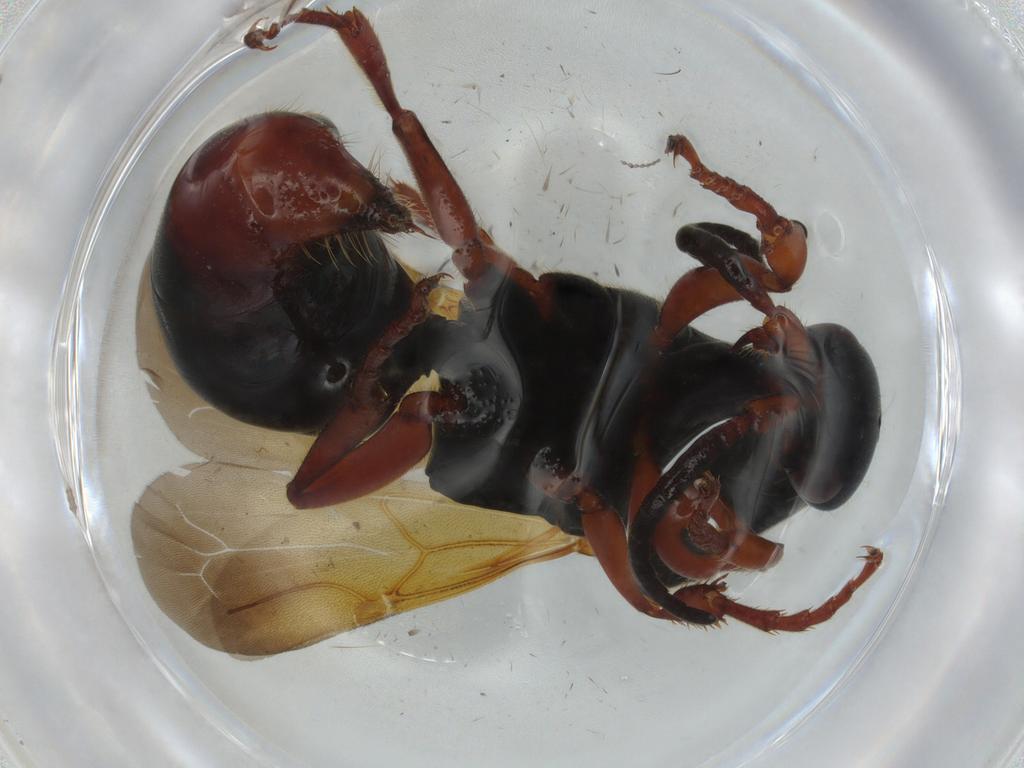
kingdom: Animalia
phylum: Arthropoda
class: Insecta
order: Hymenoptera
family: Bethylidae
